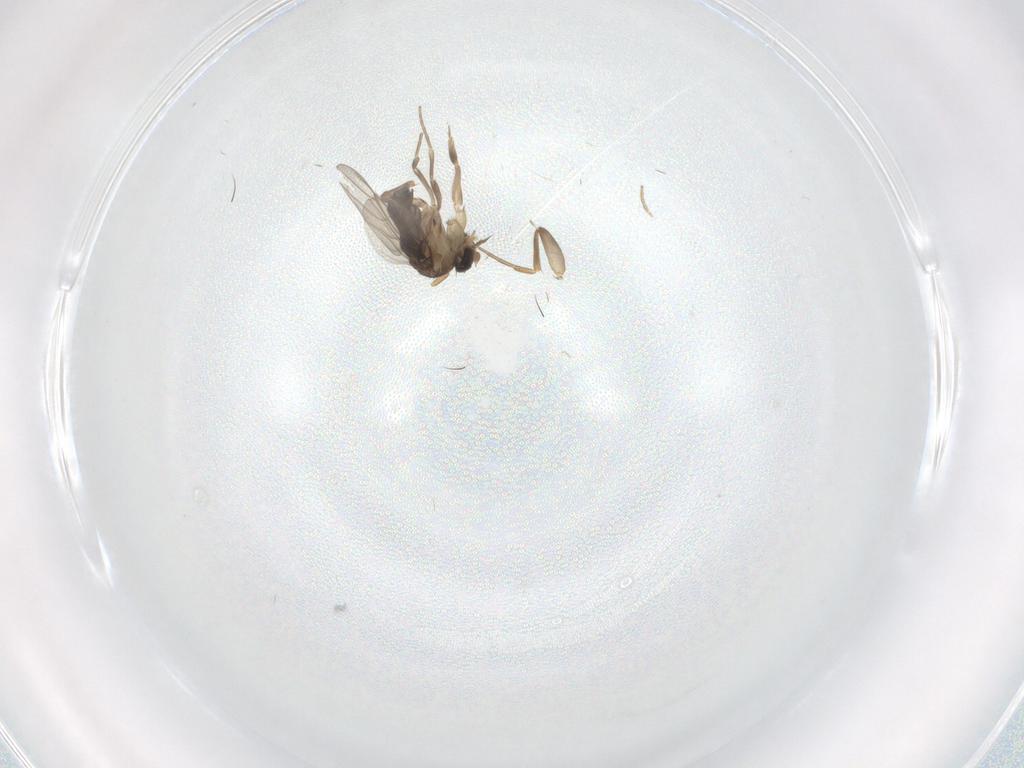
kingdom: Animalia
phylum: Arthropoda
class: Insecta
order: Diptera
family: Phoridae
